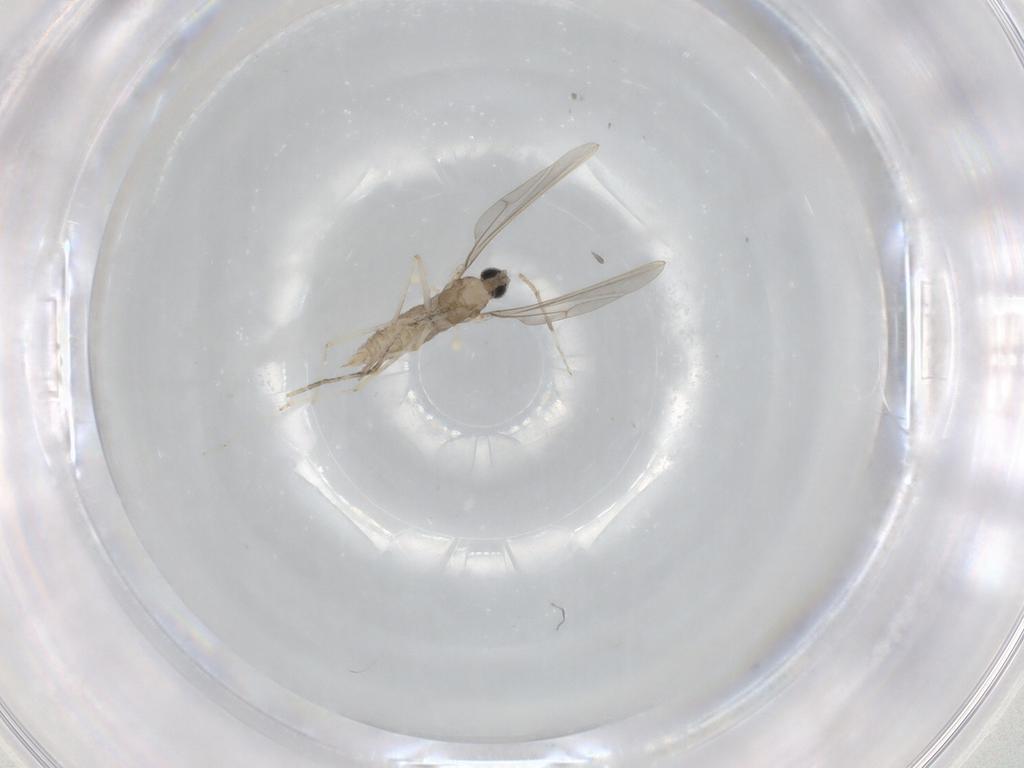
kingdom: Animalia
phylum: Arthropoda
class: Insecta
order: Diptera
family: Cecidomyiidae
